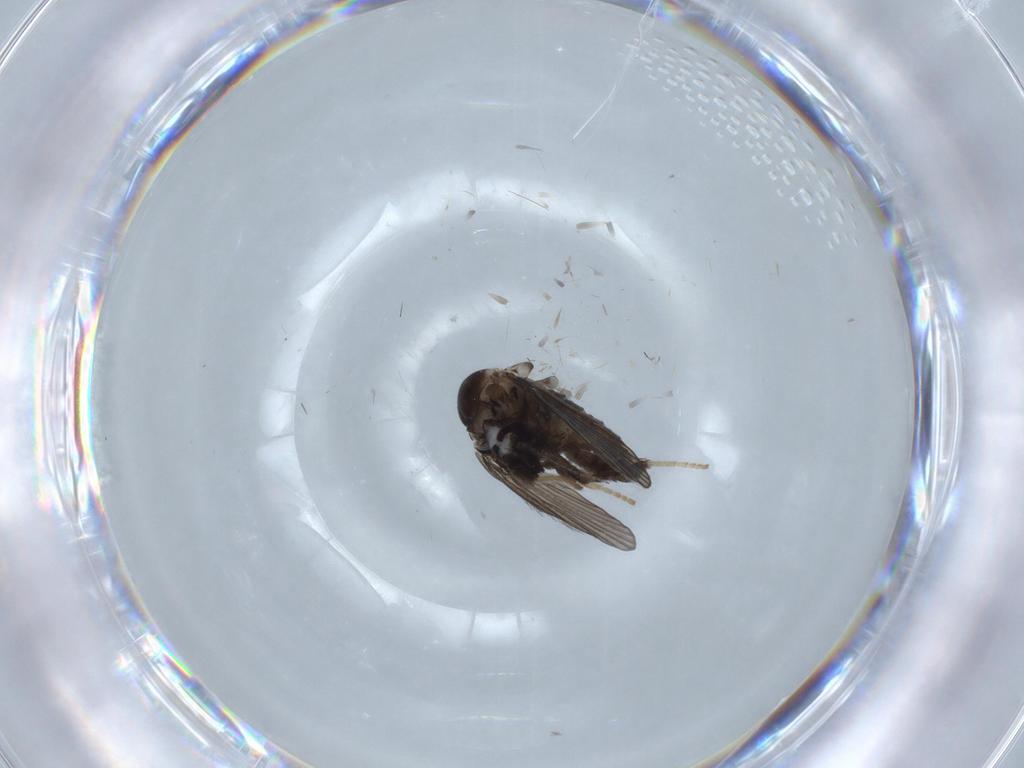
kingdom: Animalia
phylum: Arthropoda
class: Insecta
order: Diptera
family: Psychodidae
